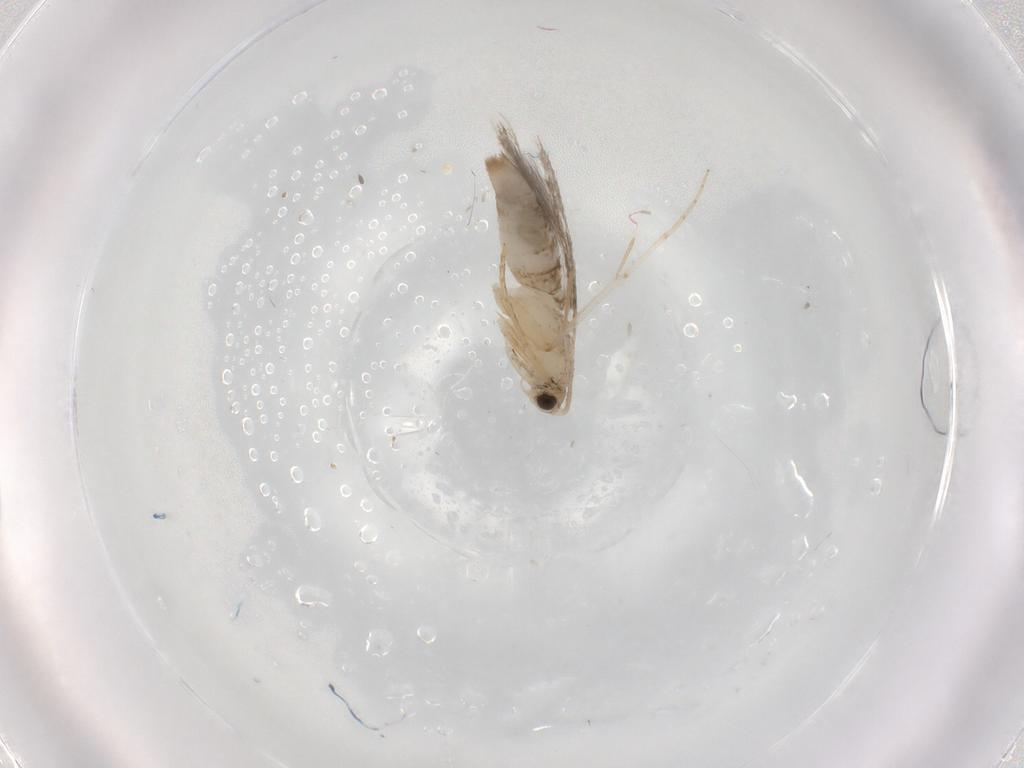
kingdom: Animalia
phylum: Arthropoda
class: Insecta
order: Lepidoptera
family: Tineidae
